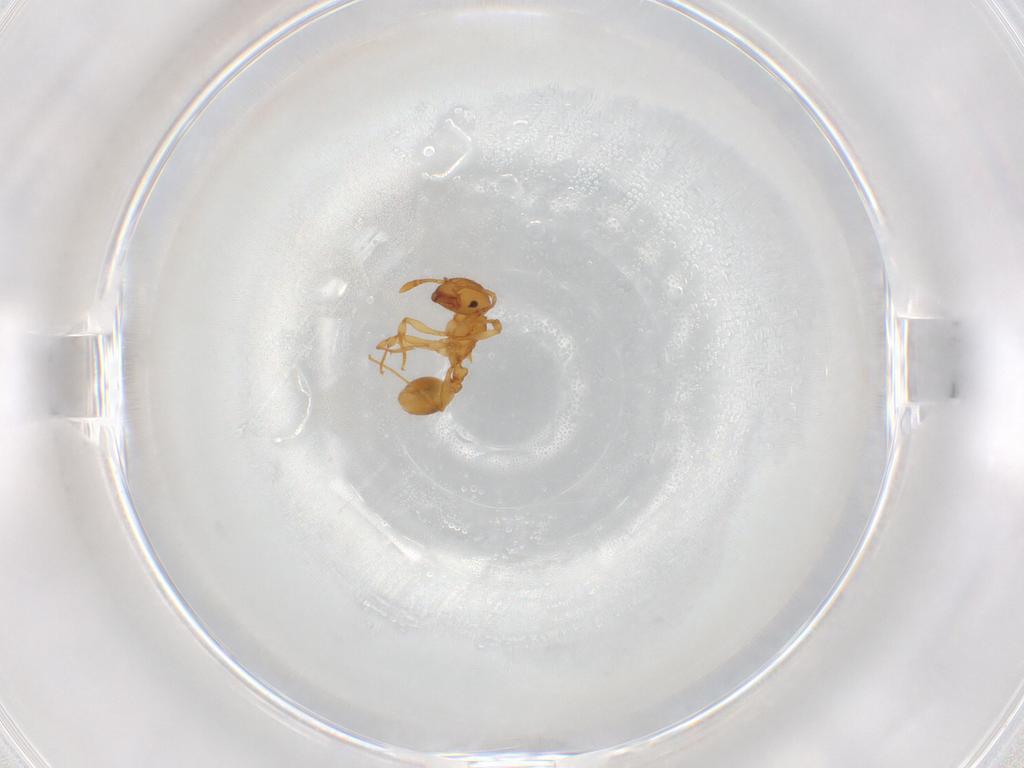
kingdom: Animalia
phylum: Arthropoda
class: Insecta
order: Hymenoptera
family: Formicidae
